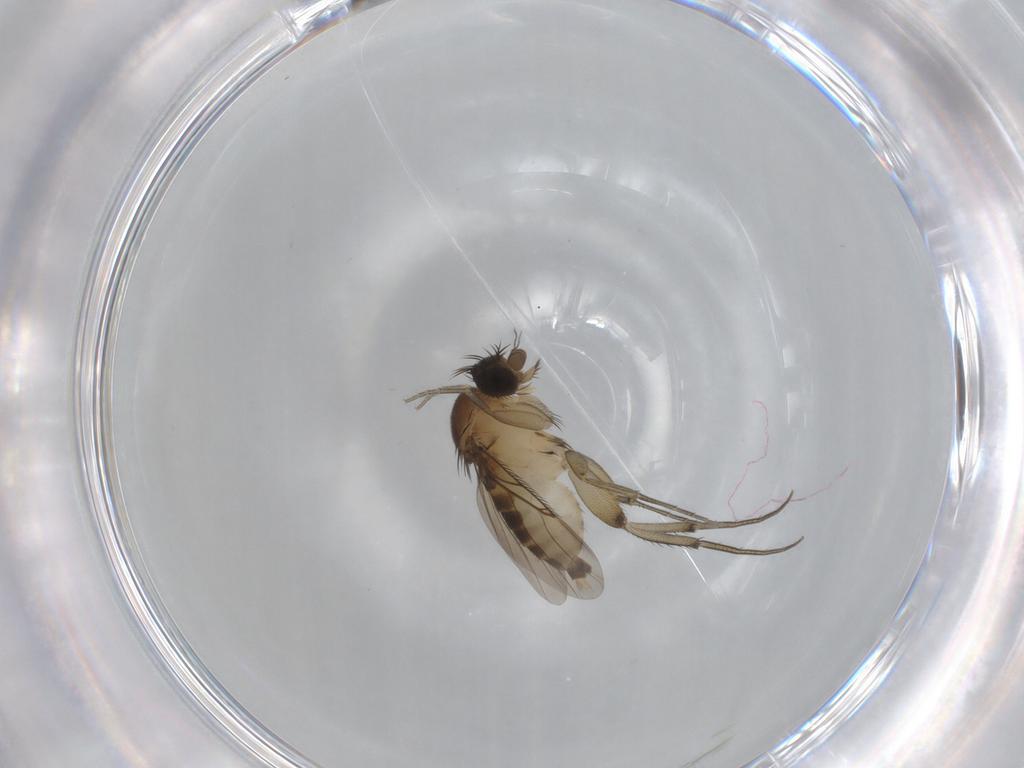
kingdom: Animalia
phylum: Arthropoda
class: Insecta
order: Diptera
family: Phoridae
